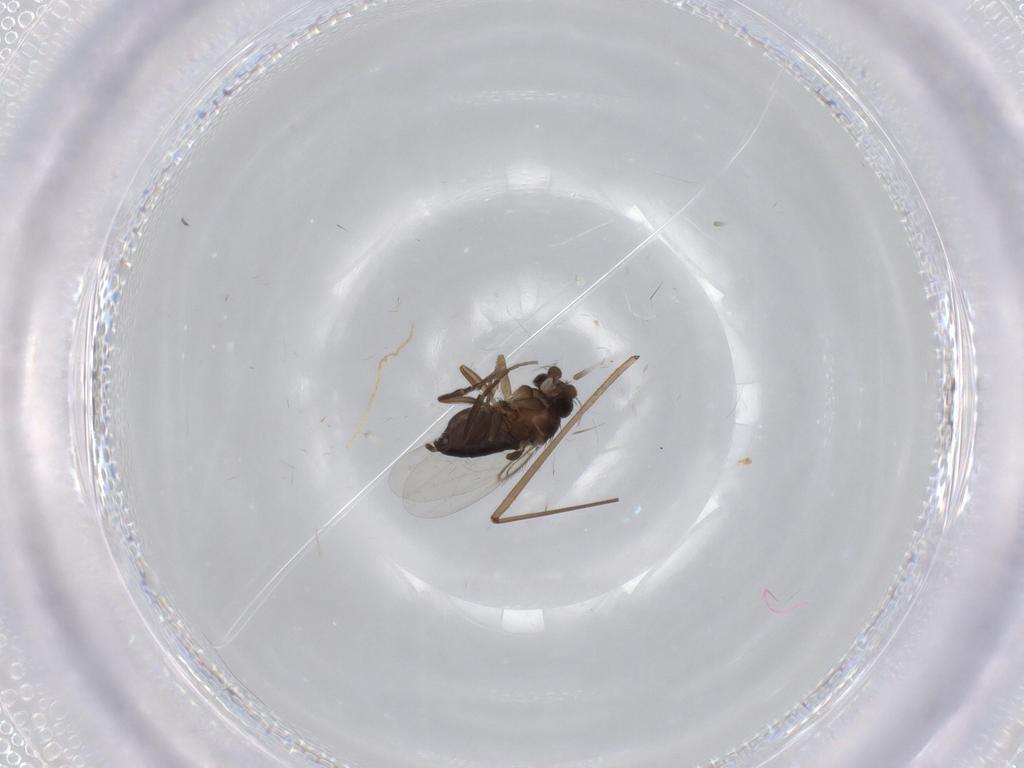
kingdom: Animalia
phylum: Arthropoda
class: Insecta
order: Diptera
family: Phoridae
